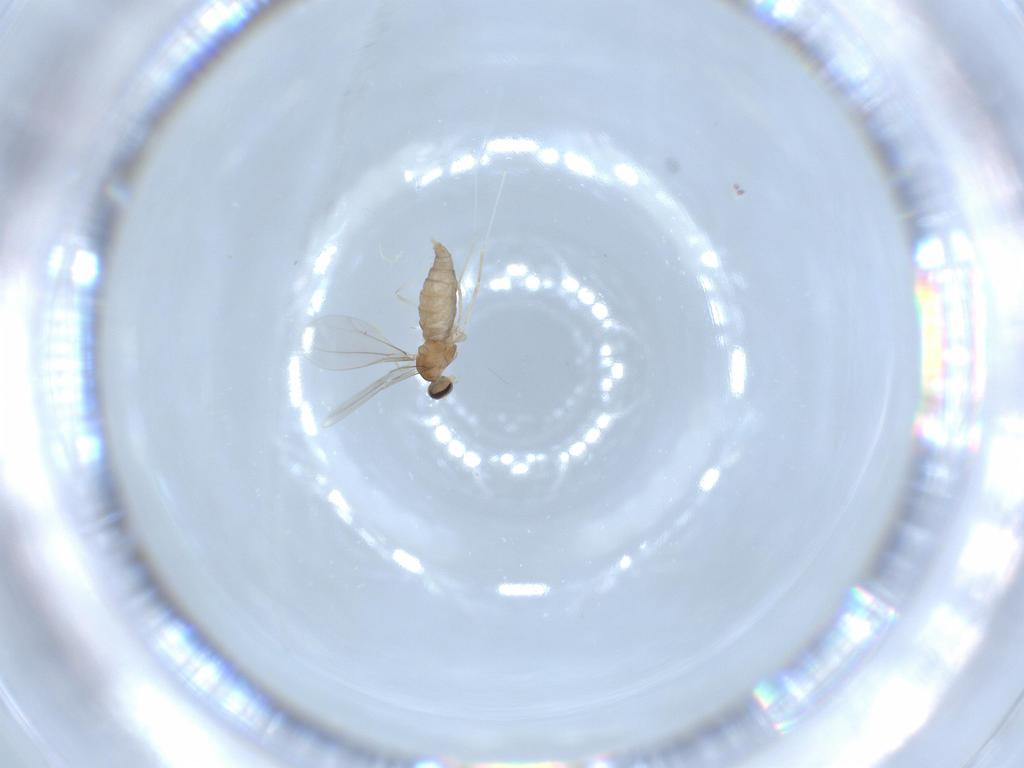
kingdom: Animalia
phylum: Arthropoda
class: Insecta
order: Diptera
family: Cecidomyiidae
